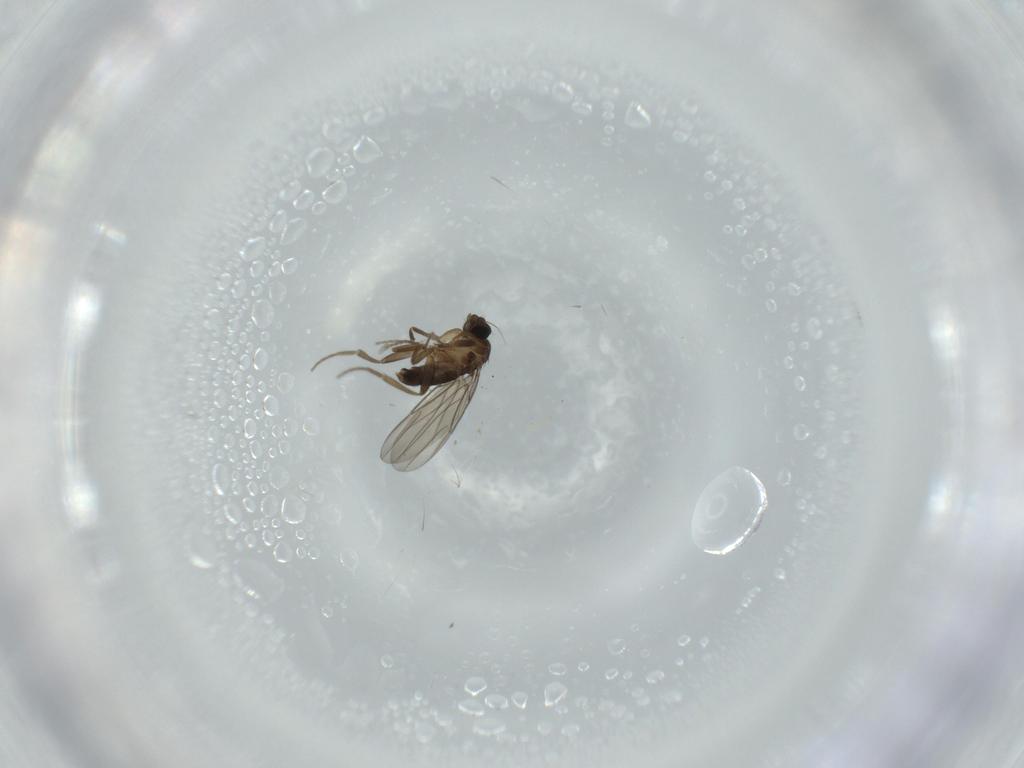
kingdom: Animalia
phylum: Arthropoda
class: Insecta
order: Diptera
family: Phoridae
